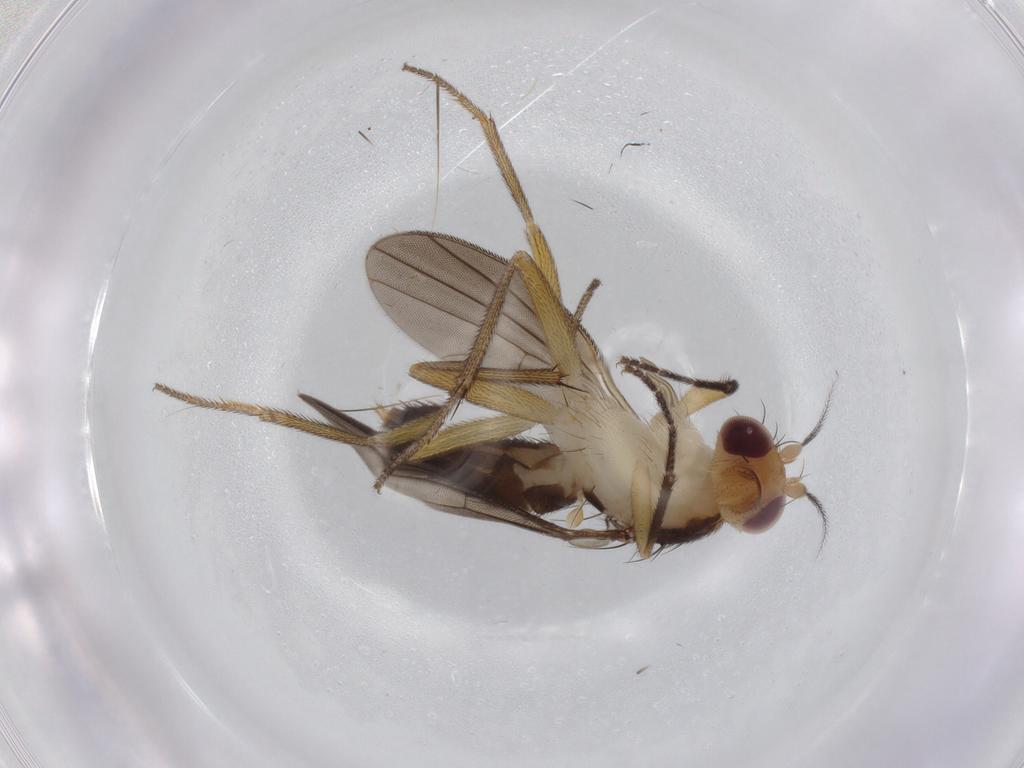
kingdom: Animalia
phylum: Arthropoda
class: Insecta
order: Diptera
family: Clusiidae
